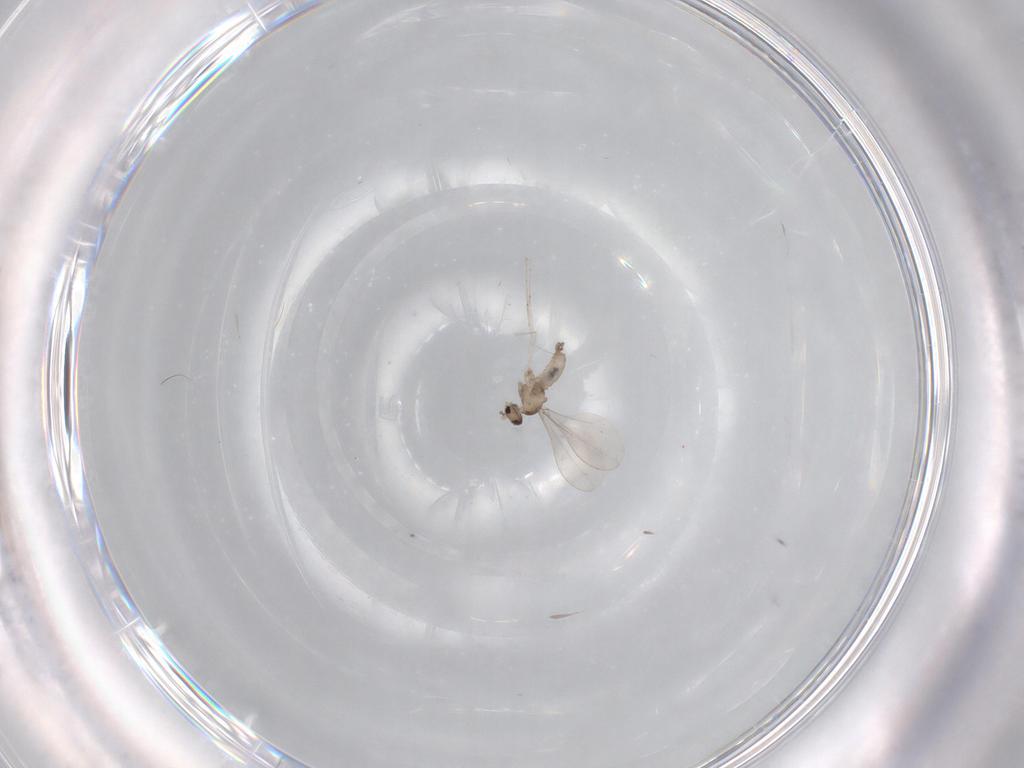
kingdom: Animalia
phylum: Arthropoda
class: Insecta
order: Diptera
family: Cecidomyiidae
